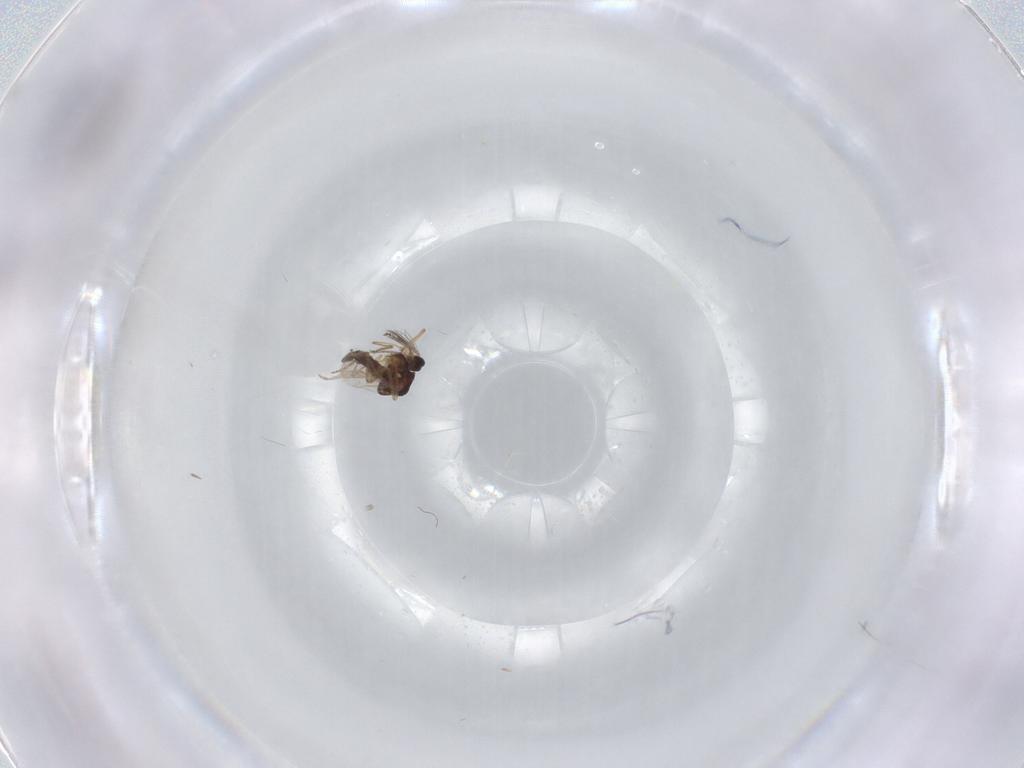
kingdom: Animalia
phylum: Arthropoda
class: Insecta
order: Diptera
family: Ceratopogonidae
